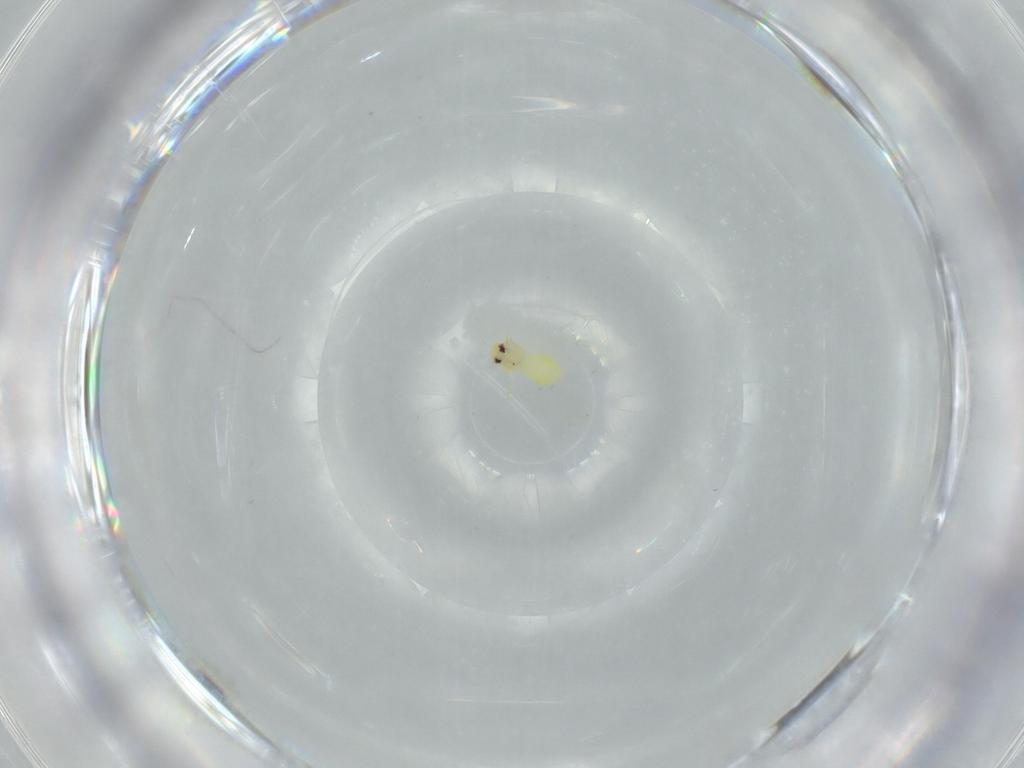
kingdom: Animalia
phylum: Arthropoda
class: Insecta
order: Hemiptera
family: Aleyrodidae
